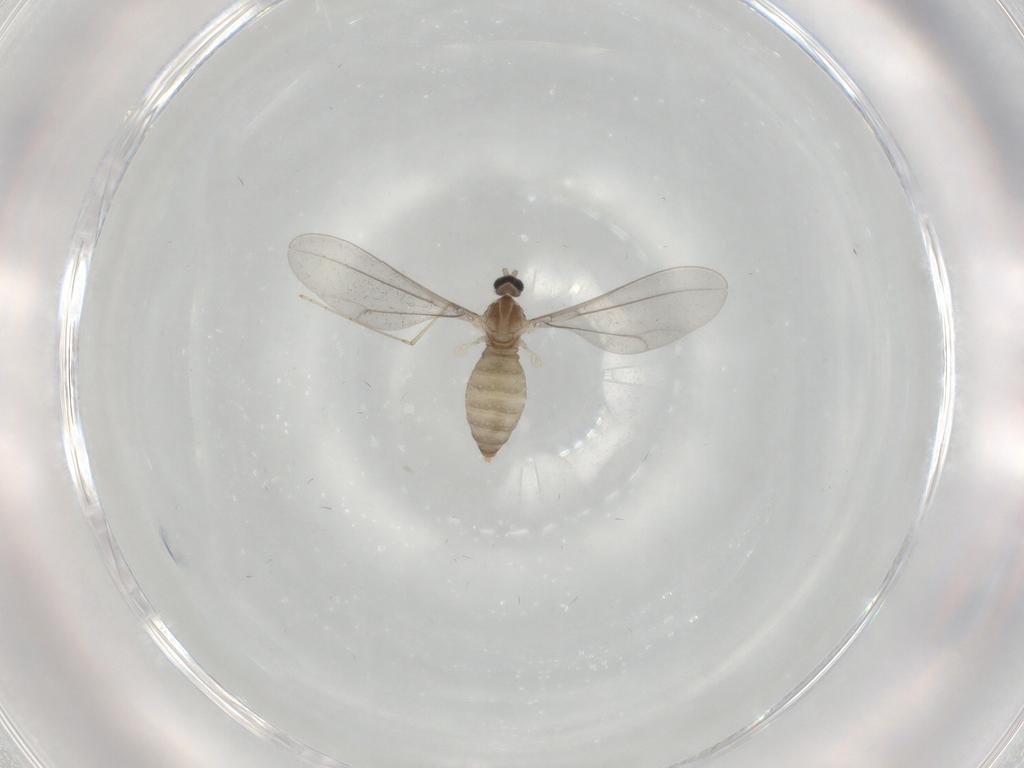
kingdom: Animalia
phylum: Arthropoda
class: Insecta
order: Diptera
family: Cecidomyiidae
